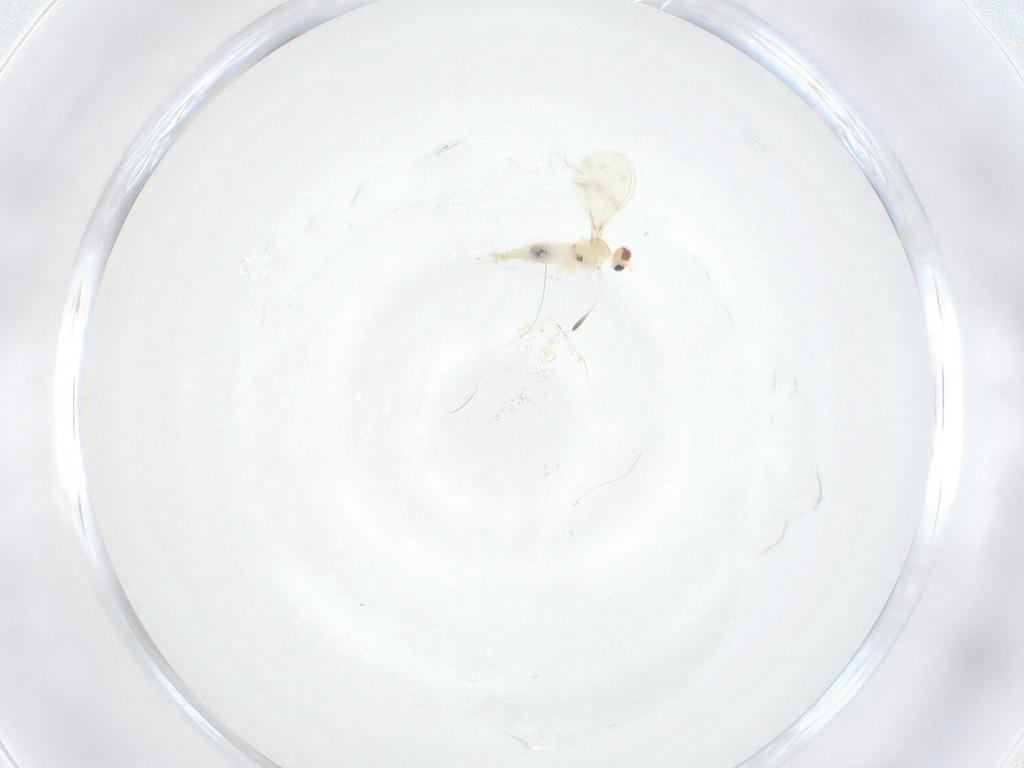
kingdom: Animalia
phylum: Arthropoda
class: Insecta
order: Diptera
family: Cecidomyiidae
